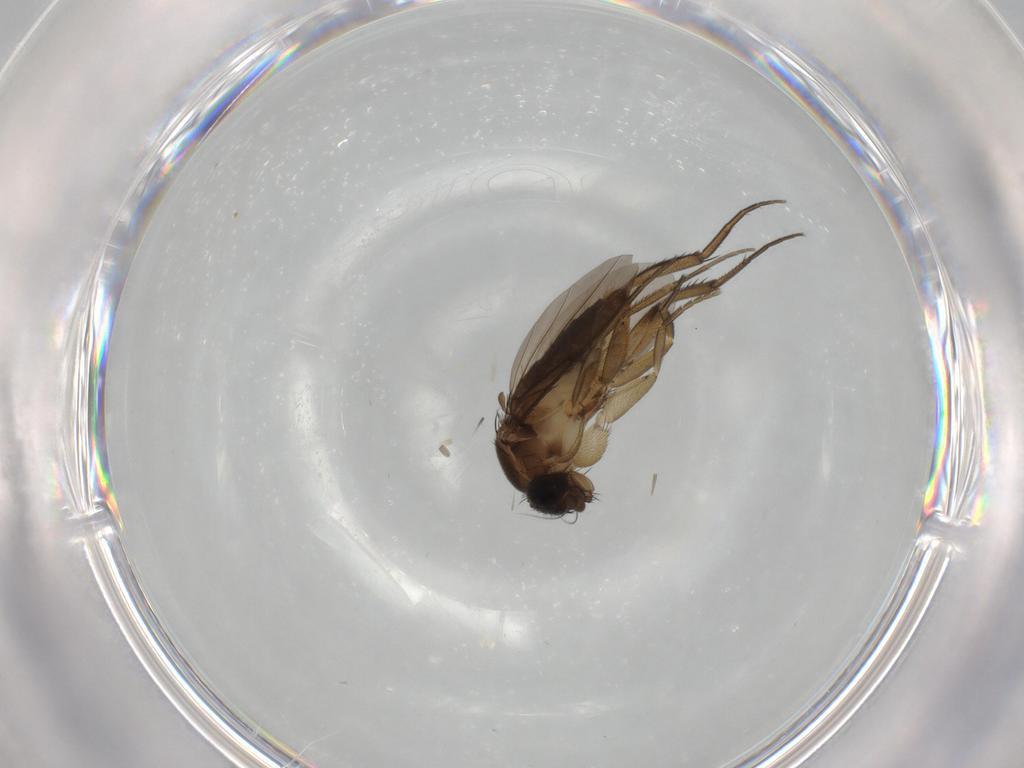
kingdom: Animalia
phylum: Arthropoda
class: Insecta
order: Diptera
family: Phoridae
